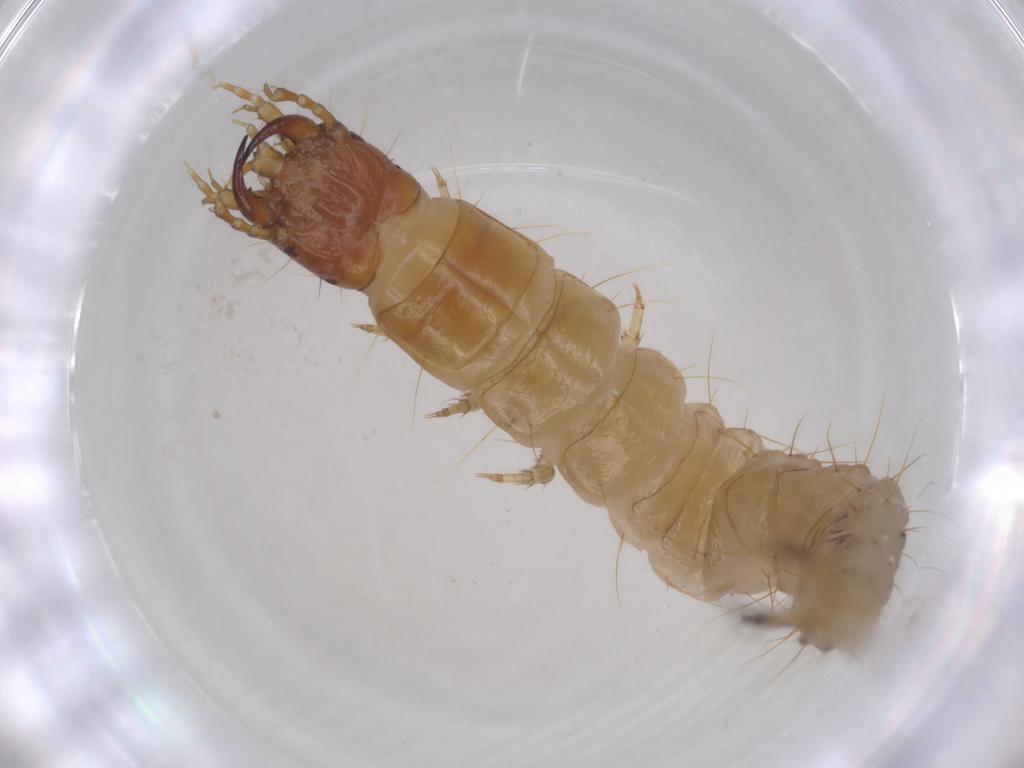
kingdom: Animalia
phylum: Arthropoda
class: Insecta
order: Coleoptera
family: Carabidae
